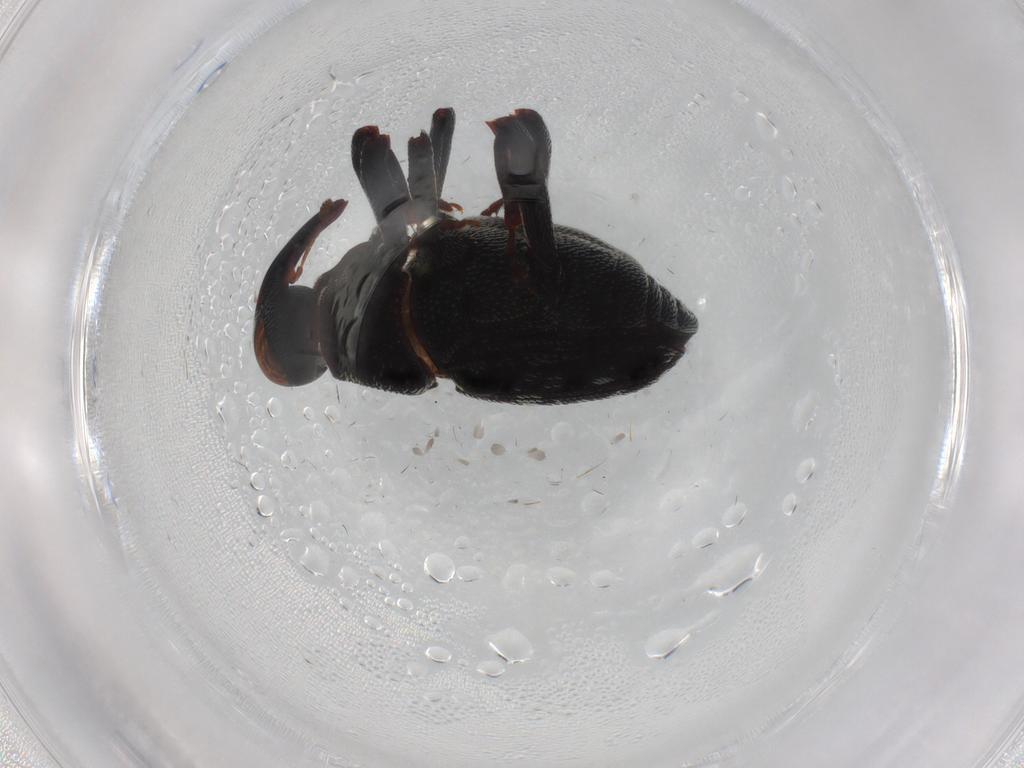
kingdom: Animalia
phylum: Arthropoda
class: Insecta
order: Coleoptera
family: Curculionidae
